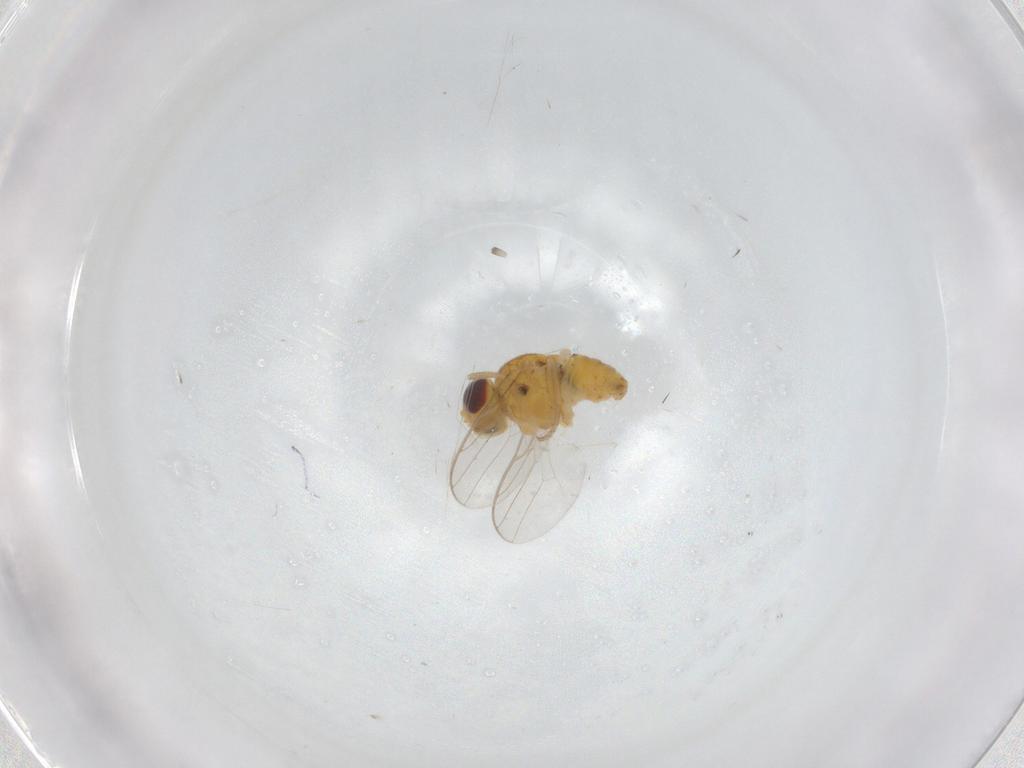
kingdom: Animalia
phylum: Arthropoda
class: Insecta
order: Diptera
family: Chloropidae
